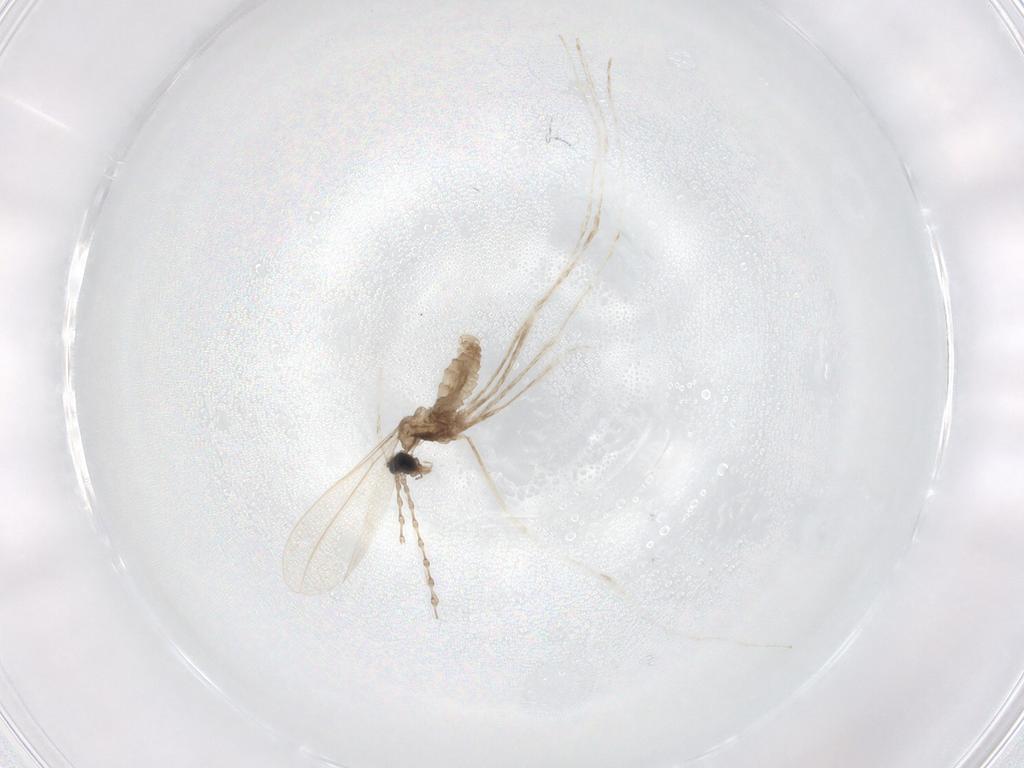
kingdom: Animalia
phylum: Arthropoda
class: Insecta
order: Diptera
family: Cecidomyiidae
